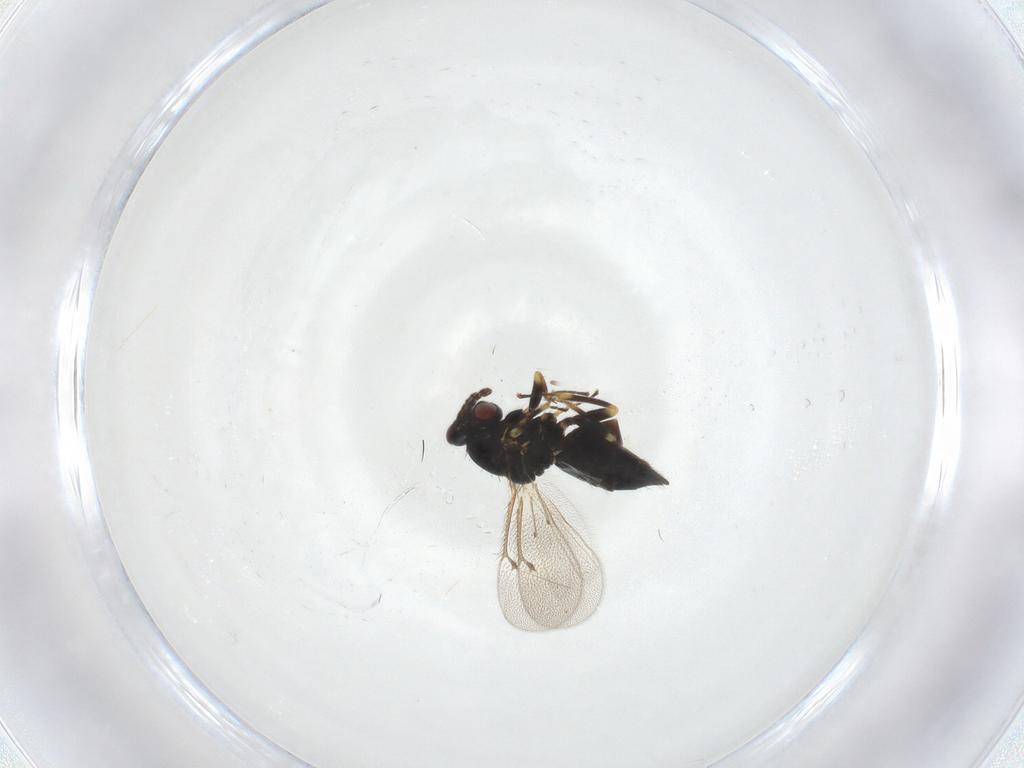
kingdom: Animalia
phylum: Arthropoda
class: Insecta
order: Hymenoptera
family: Eulophidae
